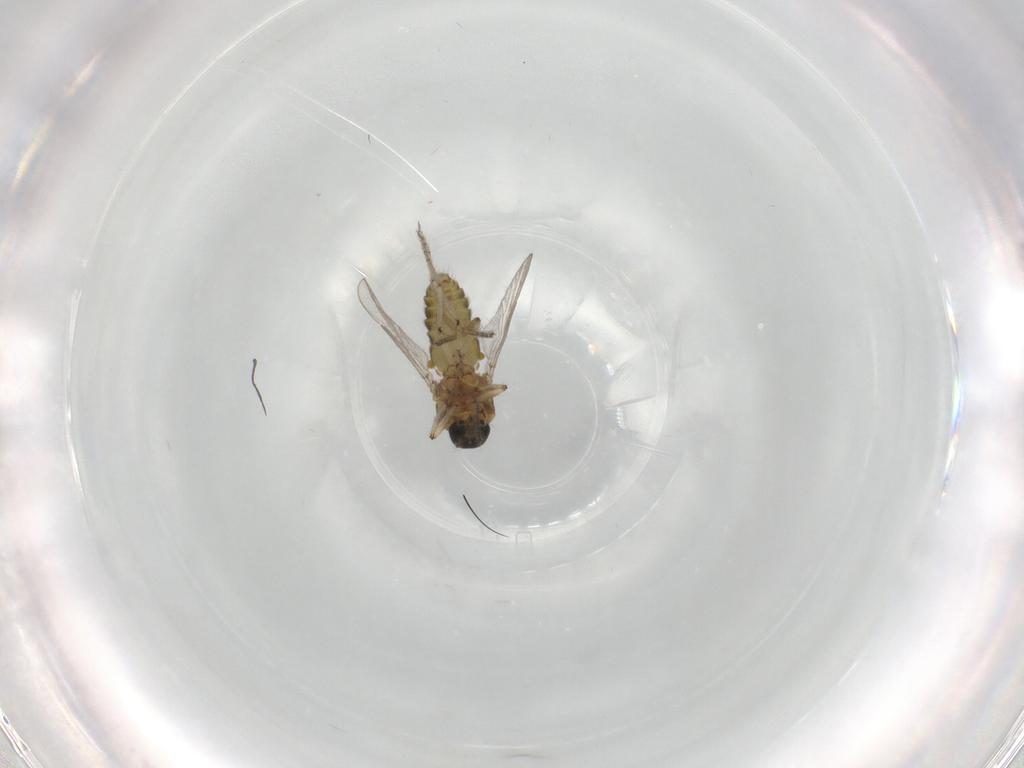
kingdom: Animalia
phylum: Arthropoda
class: Insecta
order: Diptera
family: Ceratopogonidae
